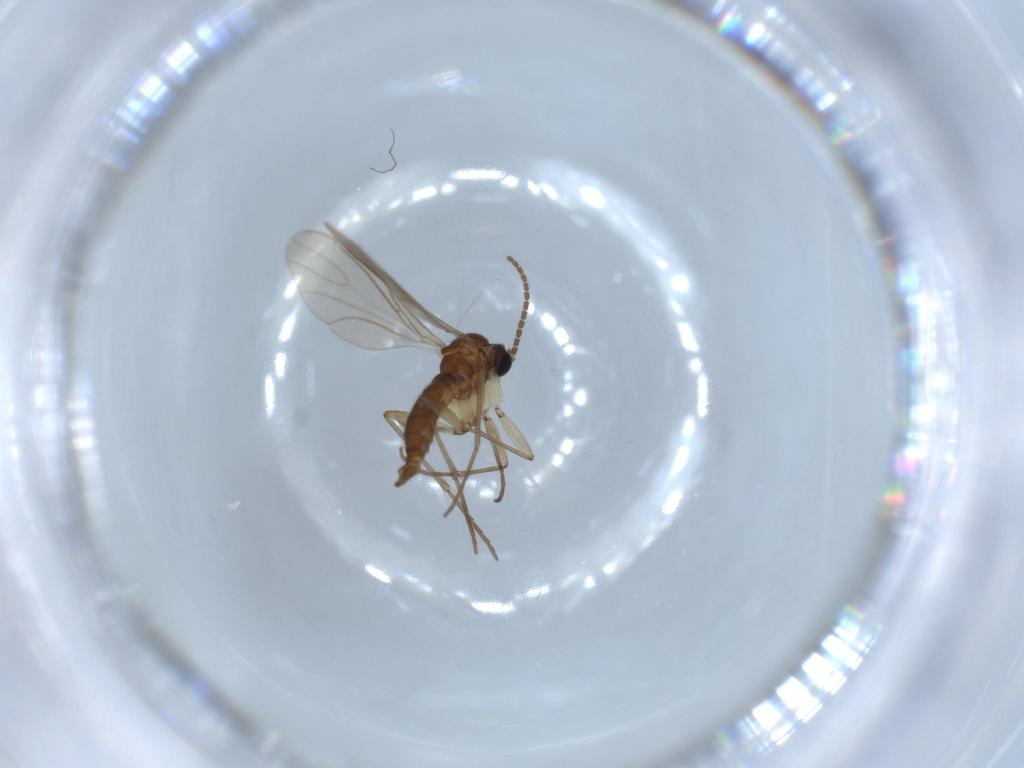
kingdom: Animalia
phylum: Arthropoda
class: Insecta
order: Diptera
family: Sciaridae
